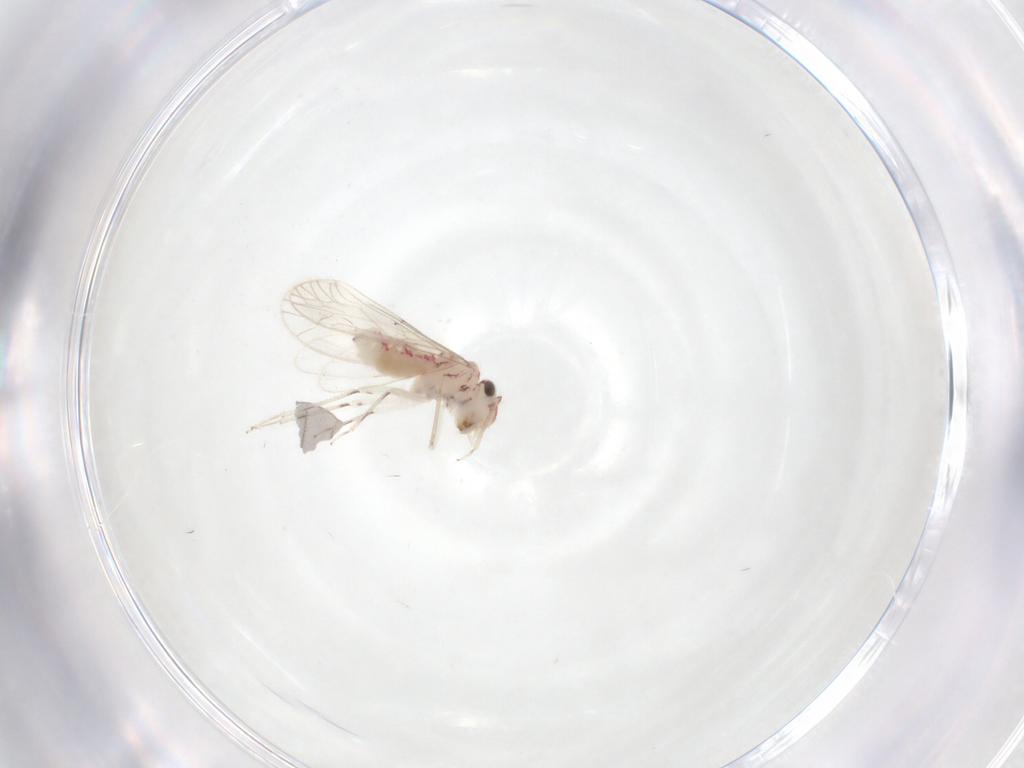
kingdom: Animalia
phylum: Arthropoda
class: Insecta
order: Psocodea
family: Caeciliusidae
